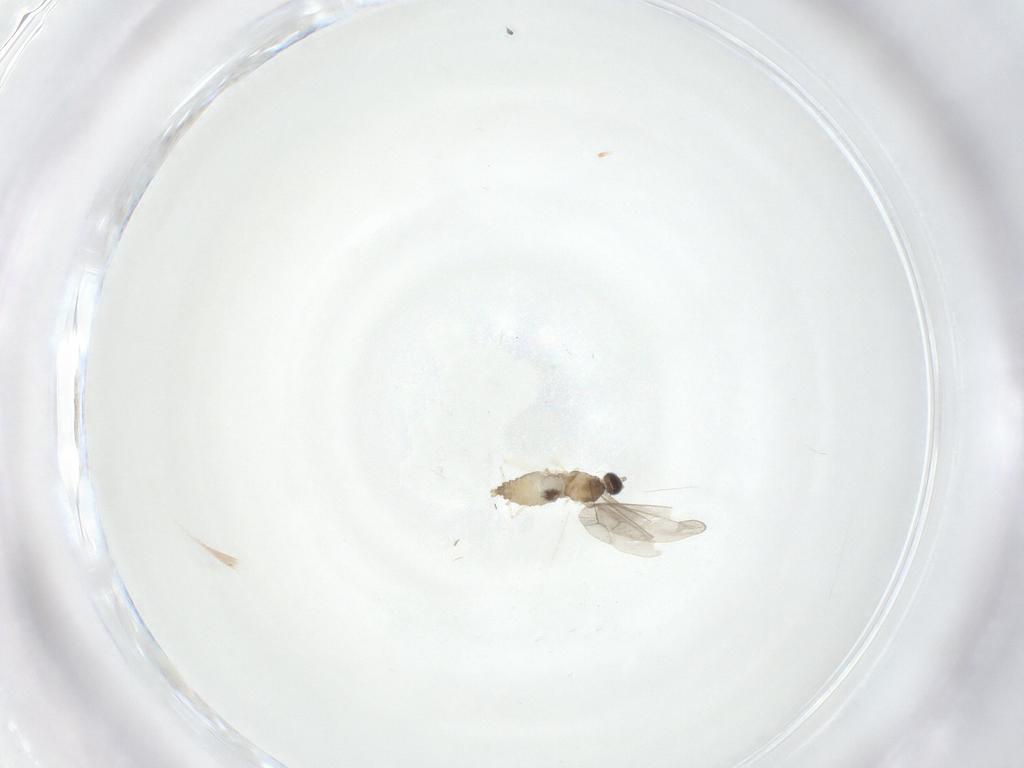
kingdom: Animalia
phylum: Arthropoda
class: Insecta
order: Diptera
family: Cecidomyiidae
